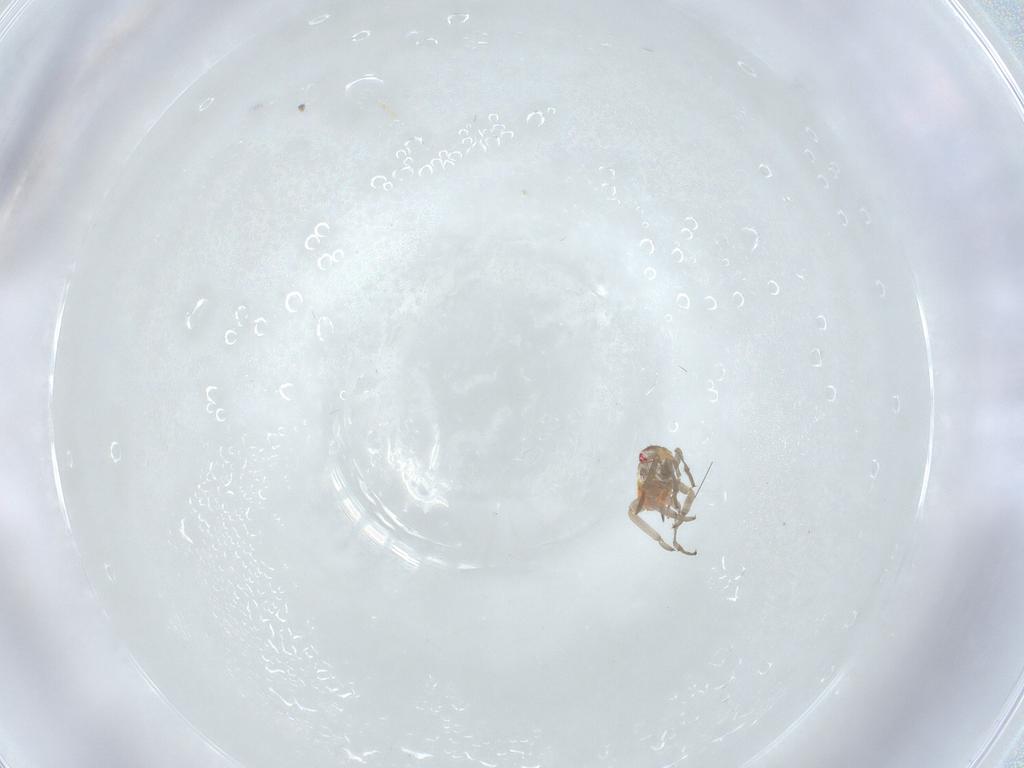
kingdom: Animalia
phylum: Arthropoda
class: Insecta
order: Hemiptera
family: Miridae
